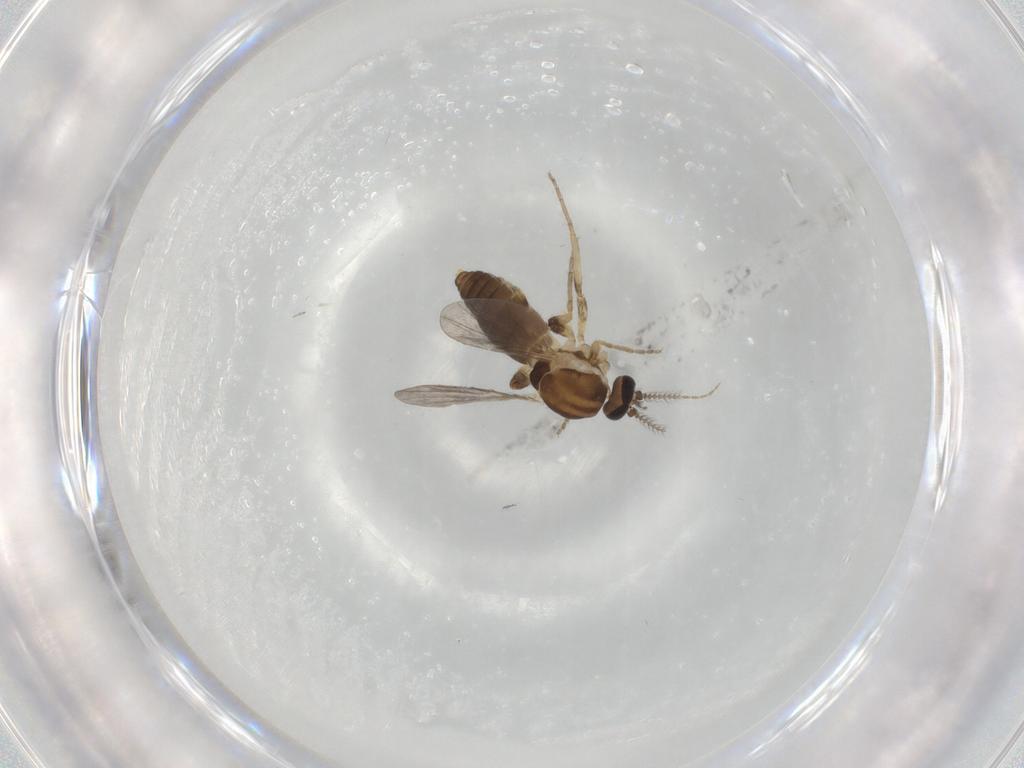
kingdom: Animalia
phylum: Arthropoda
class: Insecta
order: Diptera
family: Ceratopogonidae
